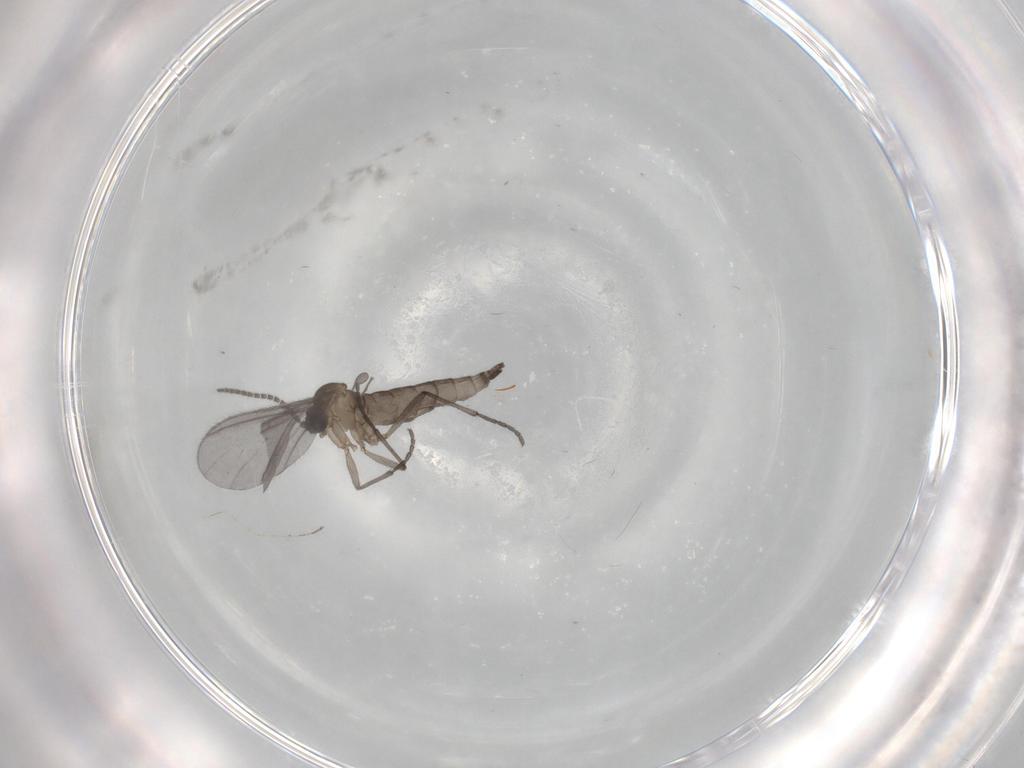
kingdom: Animalia
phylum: Arthropoda
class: Insecta
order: Diptera
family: Sciaridae
